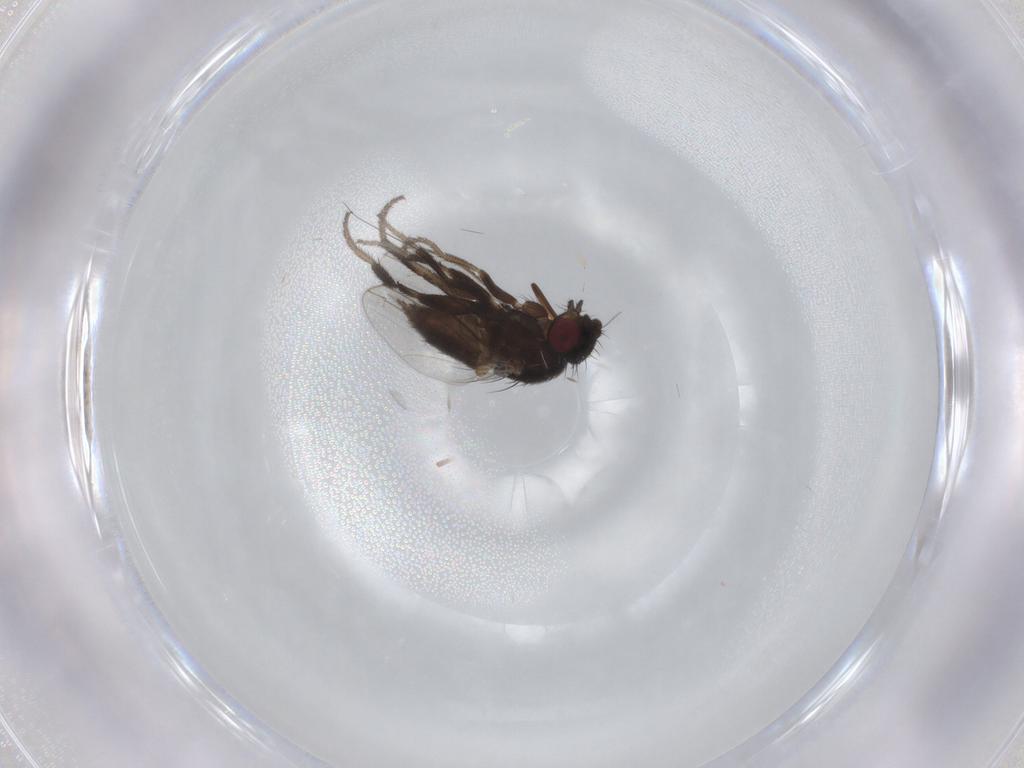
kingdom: Animalia
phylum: Arthropoda
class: Insecta
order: Diptera
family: Milichiidae
